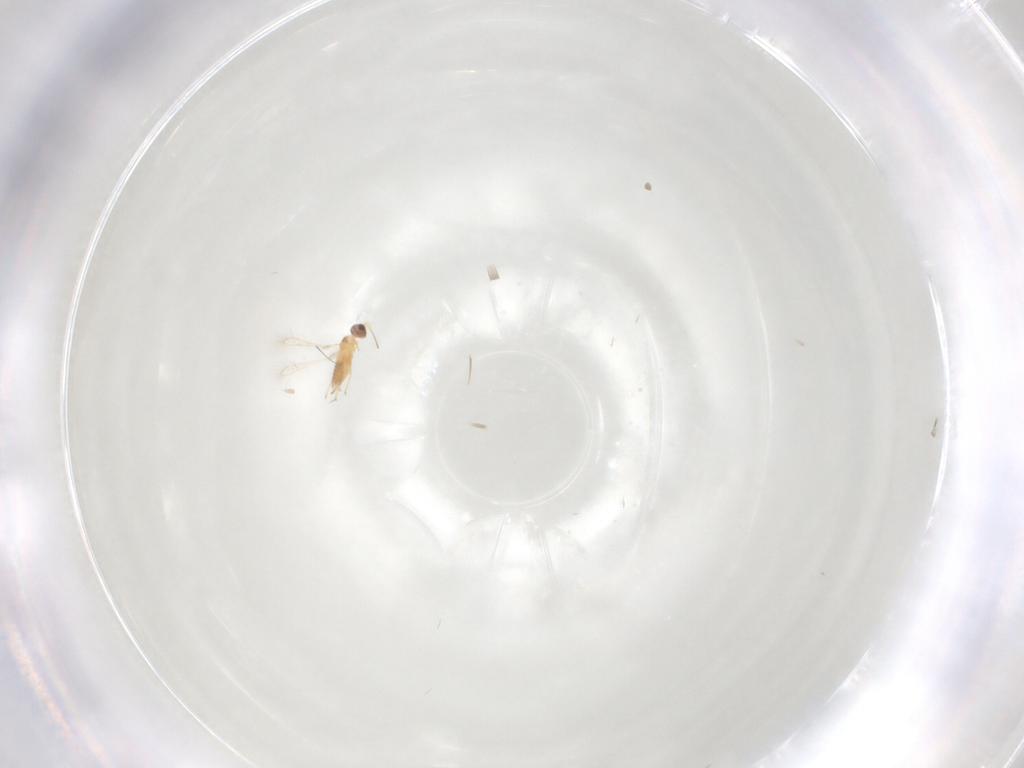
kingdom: Animalia
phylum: Arthropoda
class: Insecta
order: Hymenoptera
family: Mymaridae
